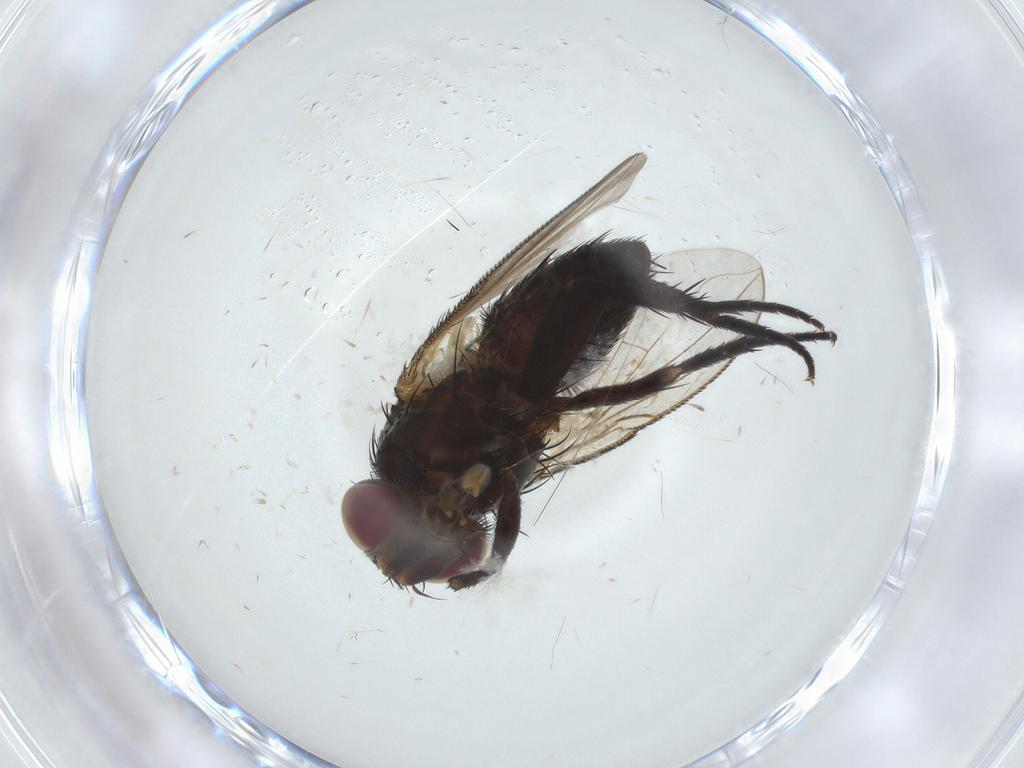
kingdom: Animalia
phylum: Arthropoda
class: Insecta
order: Diptera
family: Tachinidae
